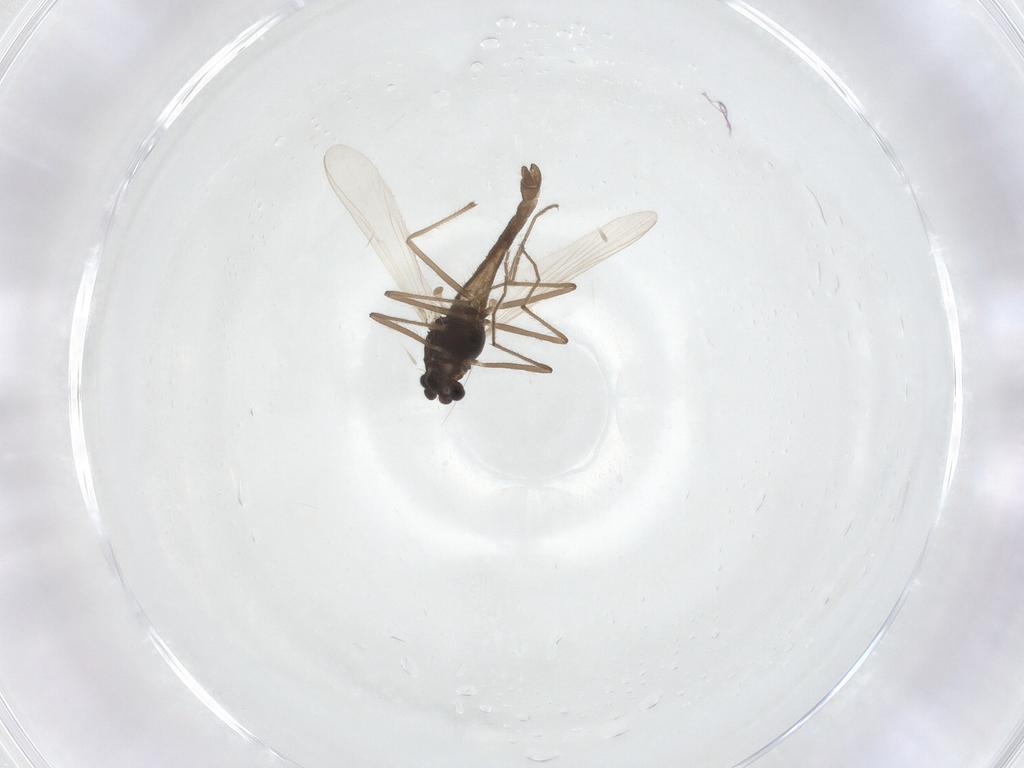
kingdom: Animalia
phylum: Arthropoda
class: Insecta
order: Diptera
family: Chironomidae
